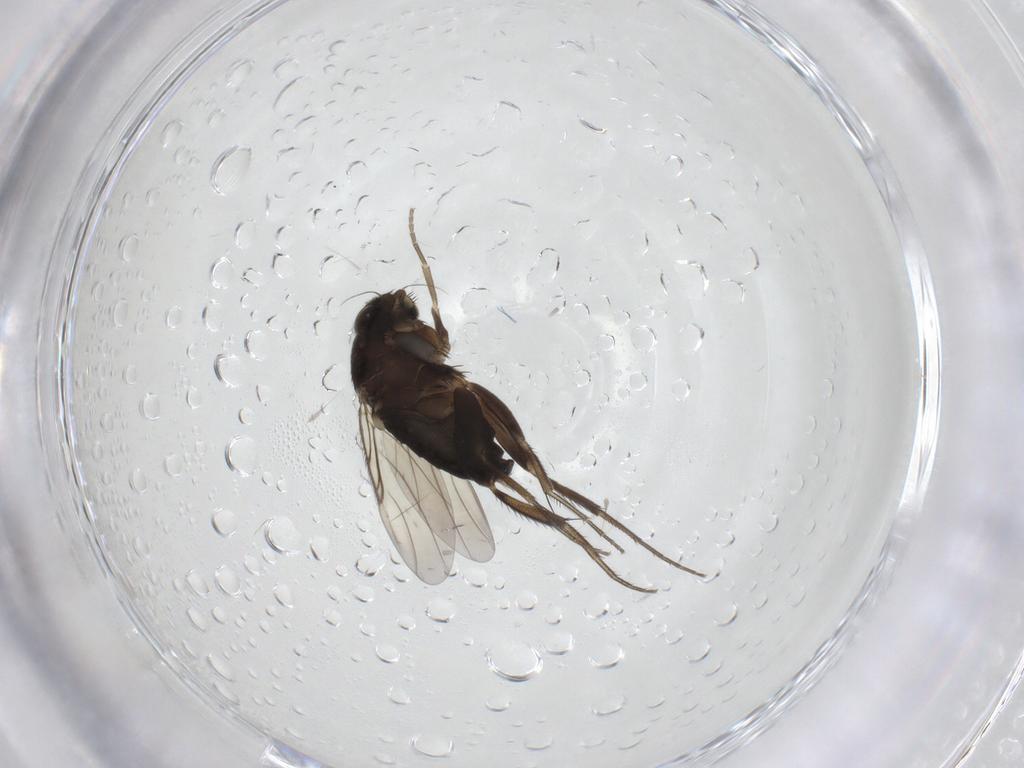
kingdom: Animalia
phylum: Arthropoda
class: Insecta
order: Diptera
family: Phoridae
